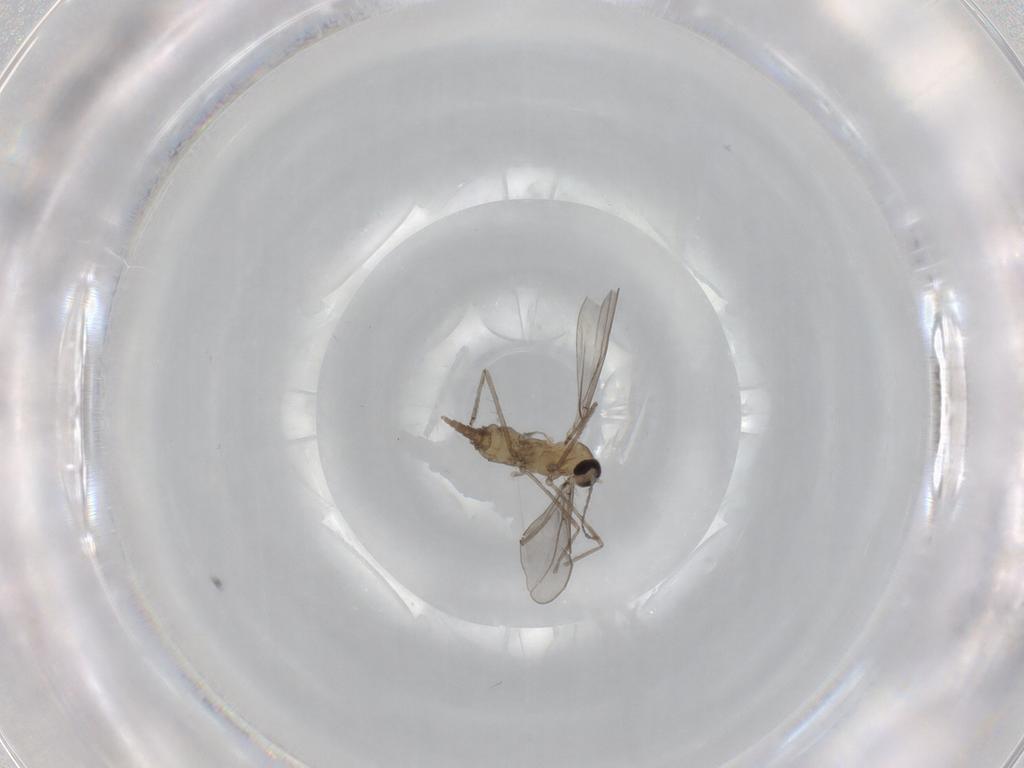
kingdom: Animalia
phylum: Arthropoda
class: Insecta
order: Diptera
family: Cecidomyiidae
